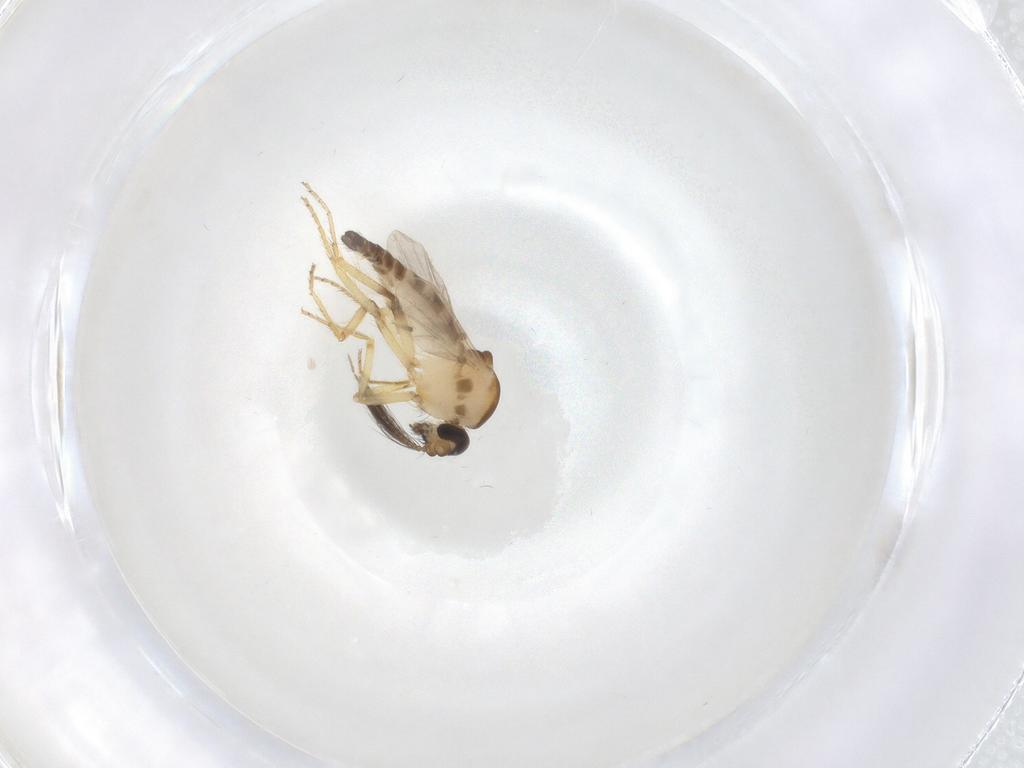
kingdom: Animalia
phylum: Arthropoda
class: Insecta
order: Diptera
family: Ceratopogonidae
